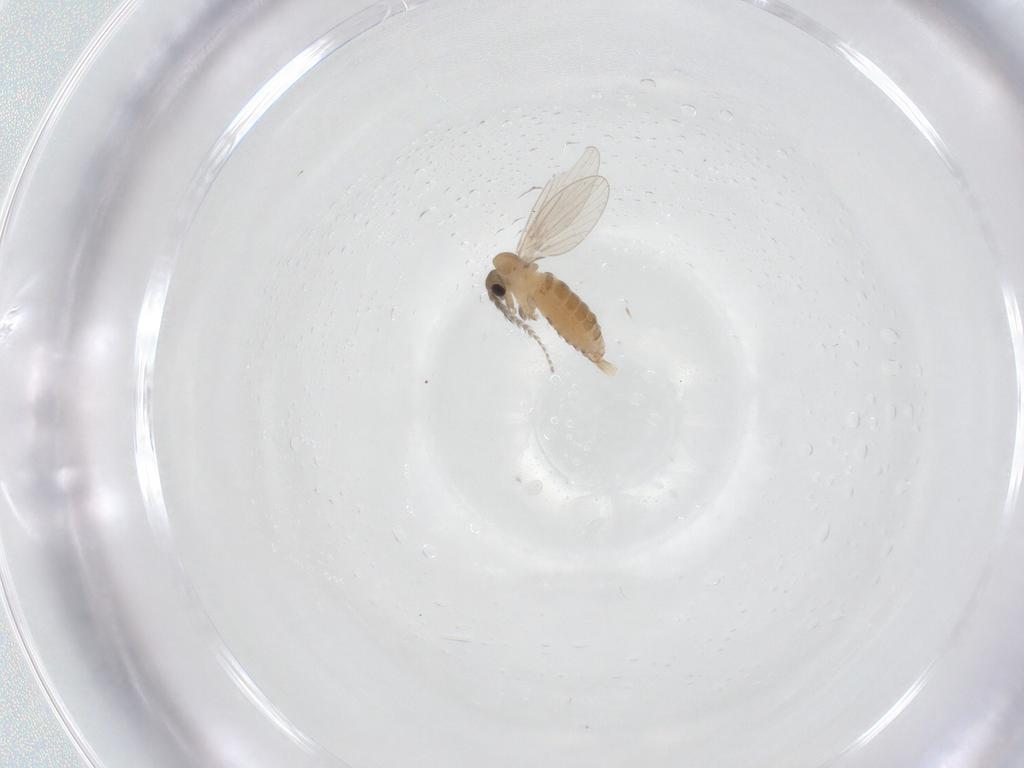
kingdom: Animalia
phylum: Arthropoda
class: Insecta
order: Diptera
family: Ceratopogonidae
